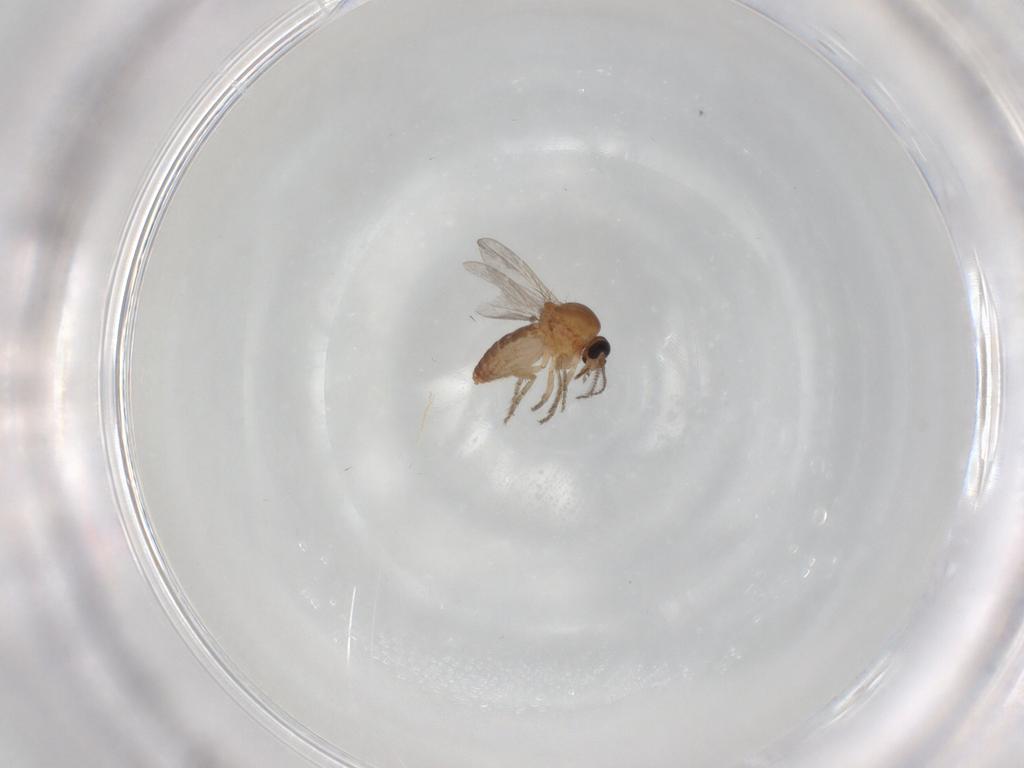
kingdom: Animalia
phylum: Arthropoda
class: Insecta
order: Diptera
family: Ceratopogonidae
